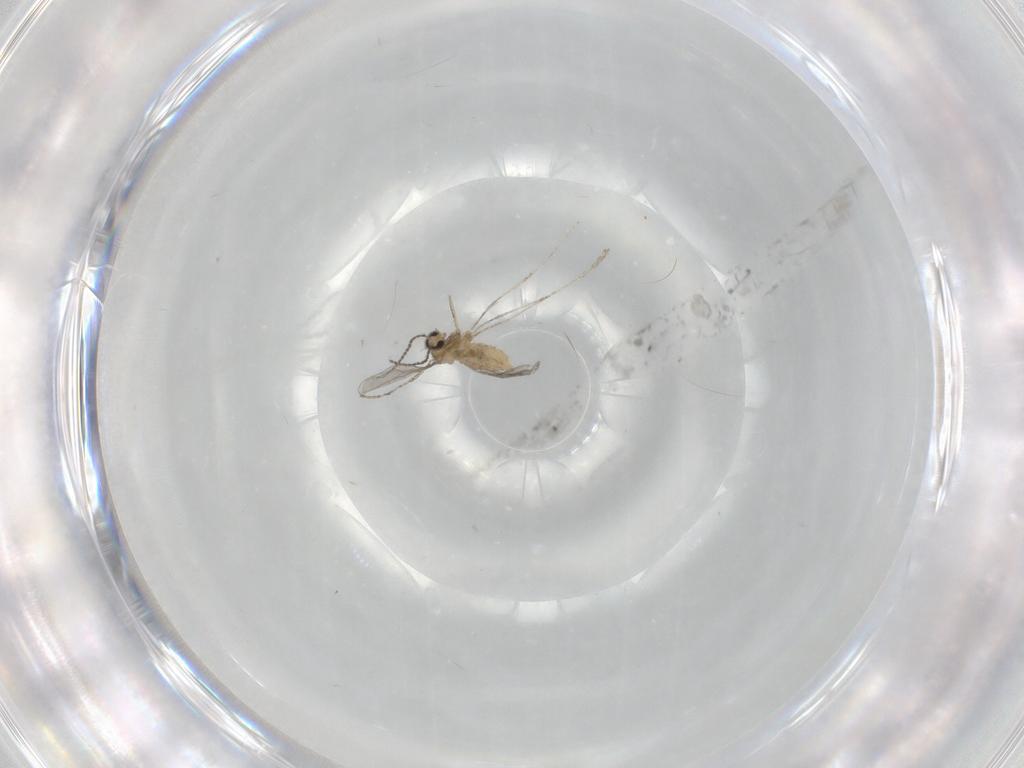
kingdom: Animalia
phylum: Arthropoda
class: Insecta
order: Diptera
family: Cecidomyiidae
